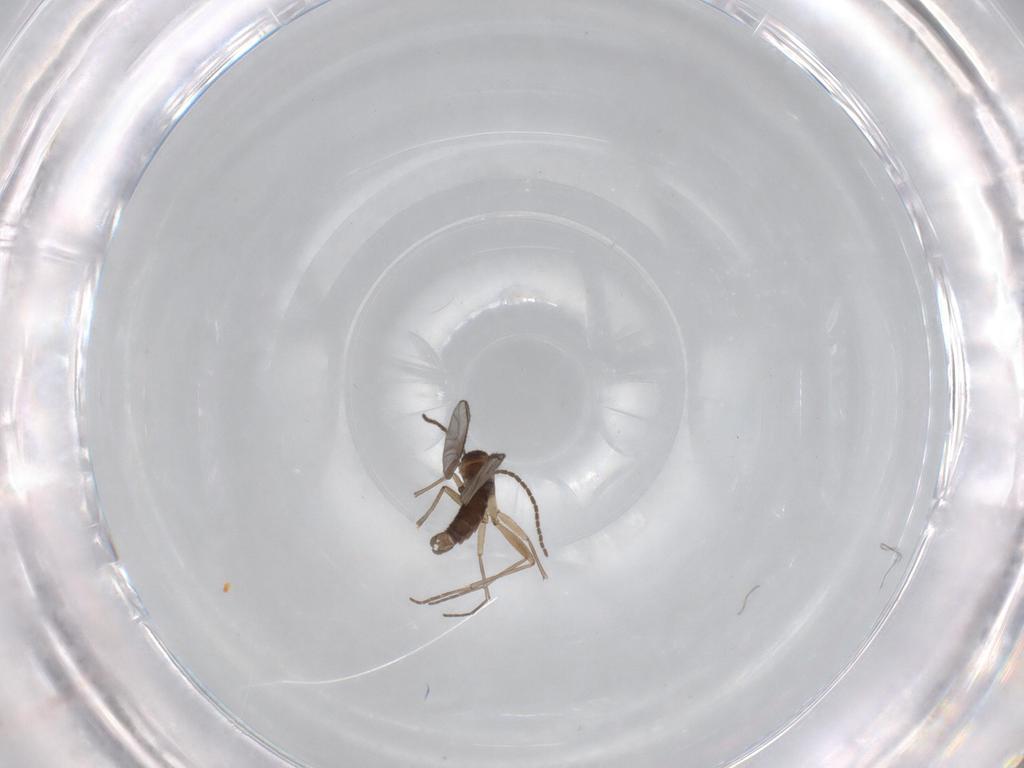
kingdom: Animalia
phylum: Arthropoda
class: Insecta
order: Diptera
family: Sciaridae
